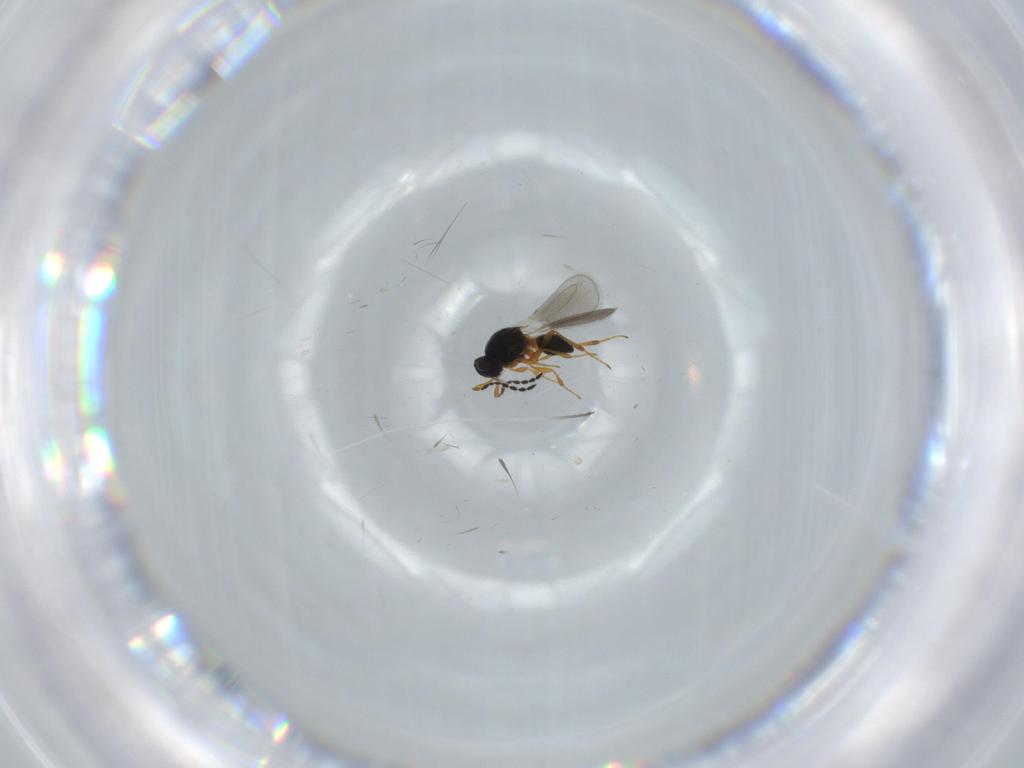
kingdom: Animalia
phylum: Arthropoda
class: Insecta
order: Hymenoptera
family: Platygastridae
